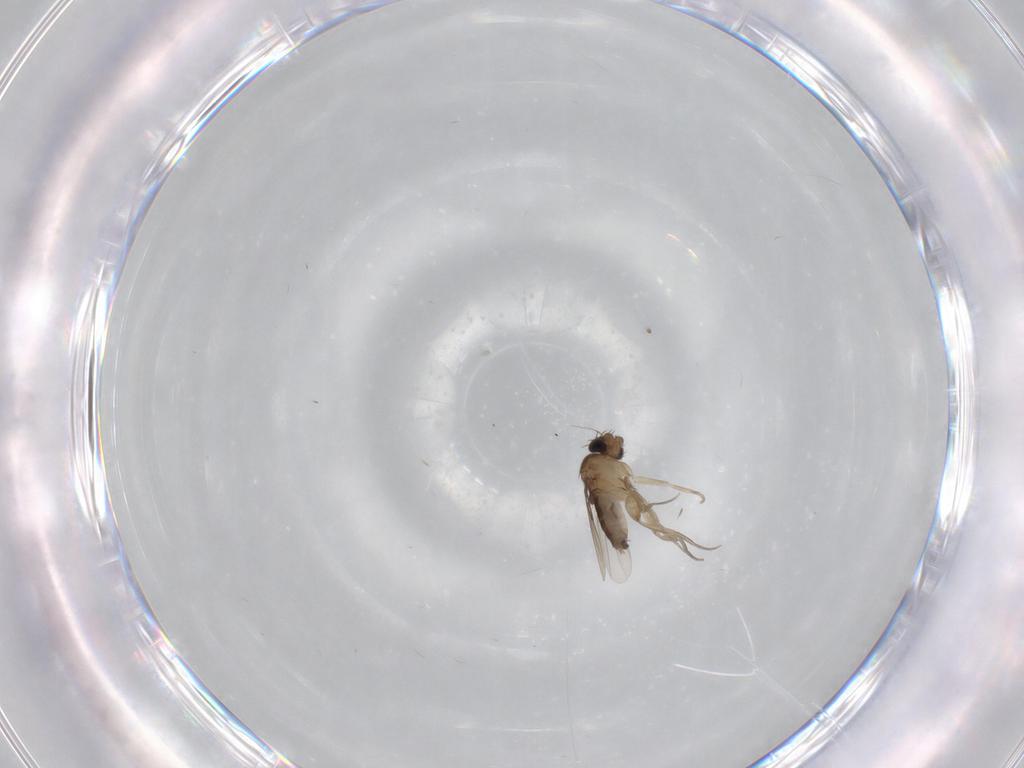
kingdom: Animalia
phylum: Arthropoda
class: Insecta
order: Diptera
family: Phoridae
